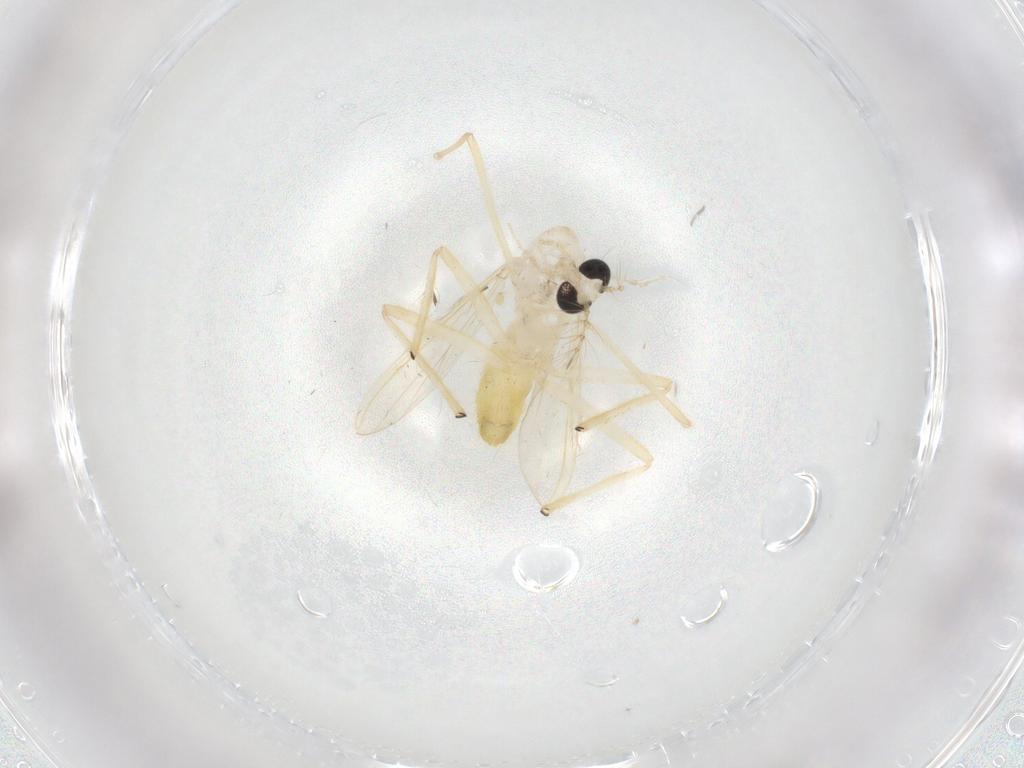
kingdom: Animalia
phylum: Arthropoda
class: Insecta
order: Diptera
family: Chironomidae
